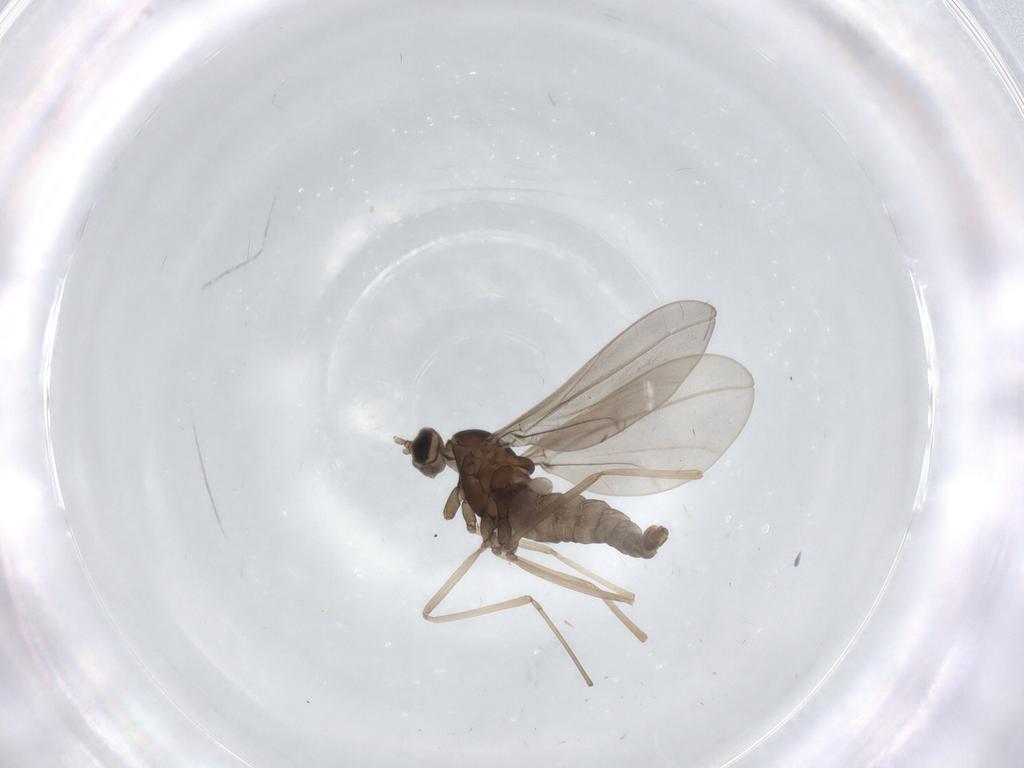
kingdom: Animalia
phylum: Arthropoda
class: Insecta
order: Diptera
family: Cecidomyiidae
